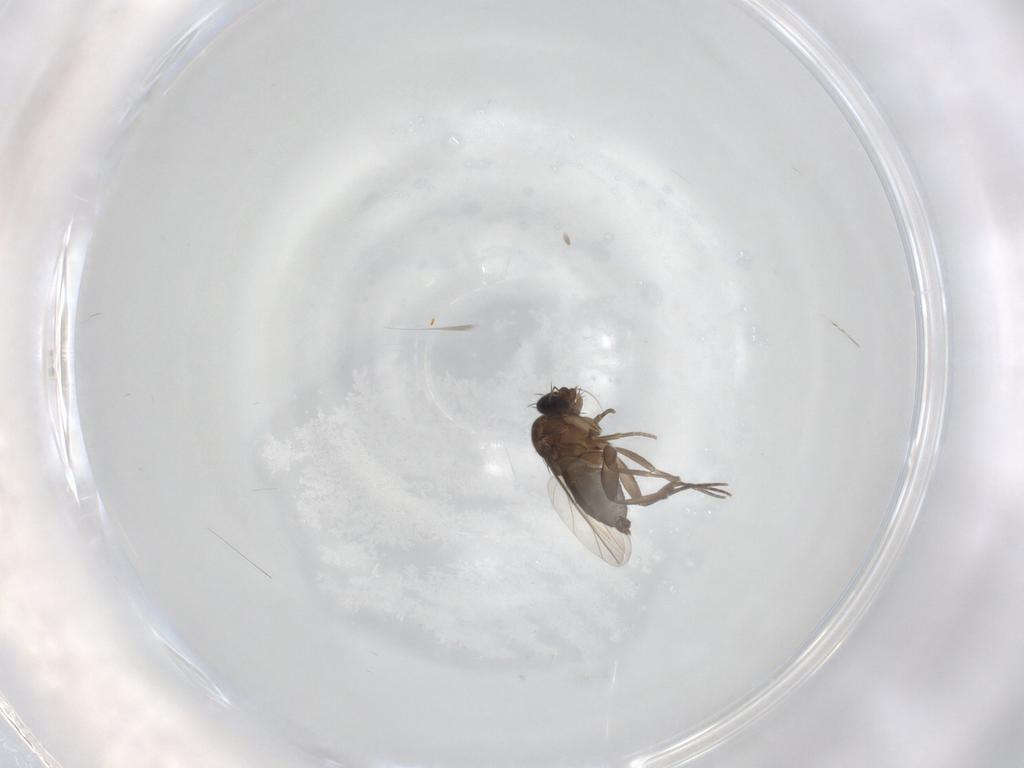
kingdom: Animalia
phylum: Arthropoda
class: Insecta
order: Diptera
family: Phoridae
